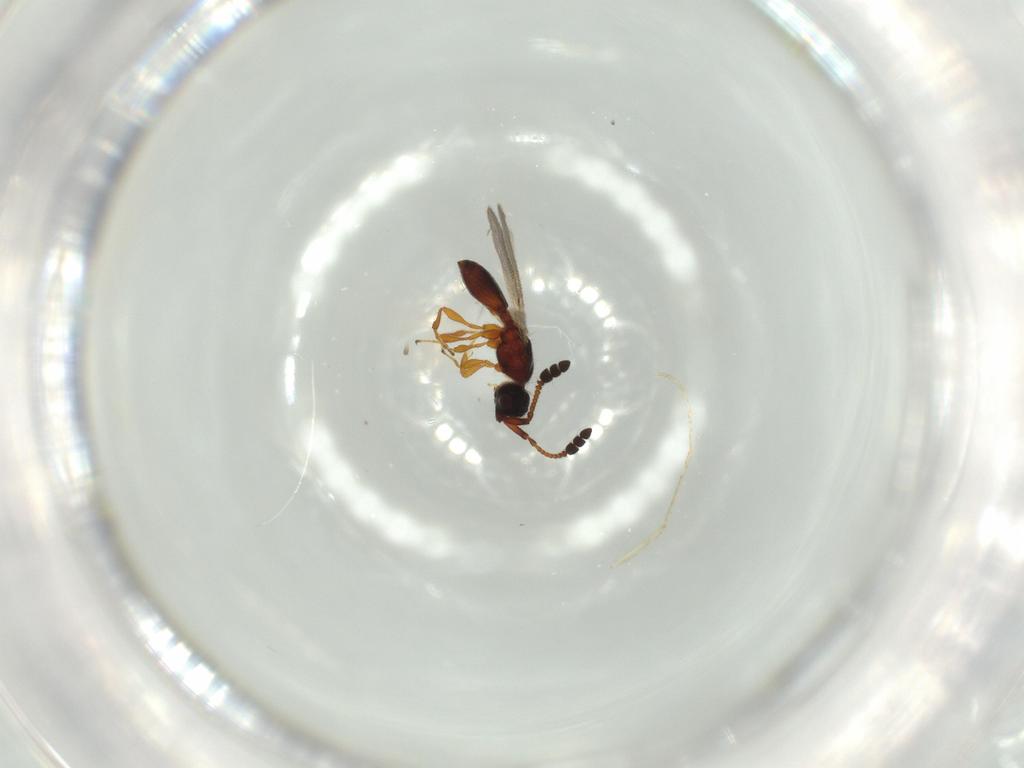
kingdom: Animalia
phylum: Arthropoda
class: Insecta
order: Hymenoptera
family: Diapriidae
